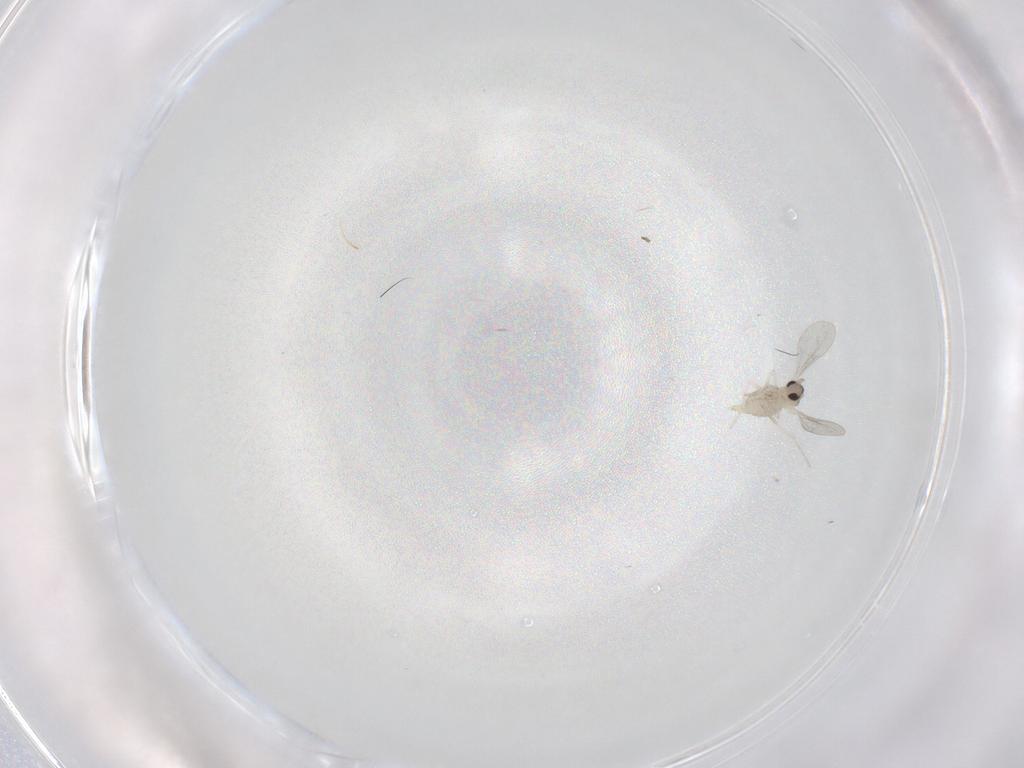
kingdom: Animalia
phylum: Arthropoda
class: Insecta
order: Diptera
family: Cecidomyiidae
